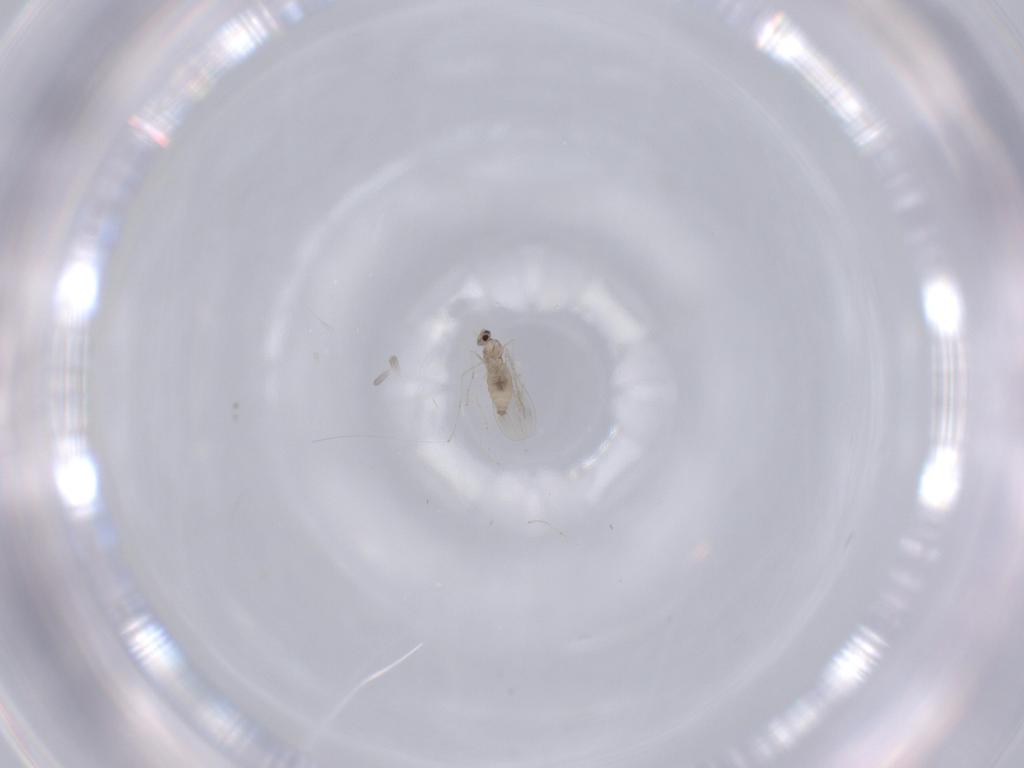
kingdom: Animalia
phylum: Arthropoda
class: Insecta
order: Diptera
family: Cecidomyiidae
